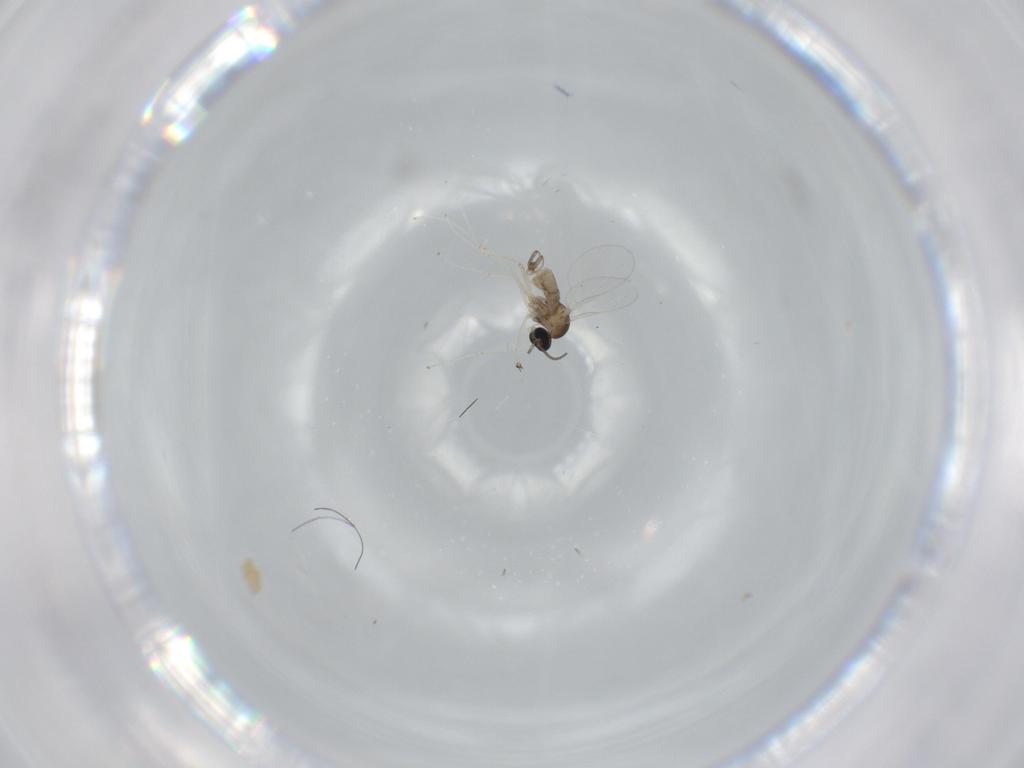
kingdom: Animalia
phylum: Arthropoda
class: Insecta
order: Diptera
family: Cecidomyiidae
